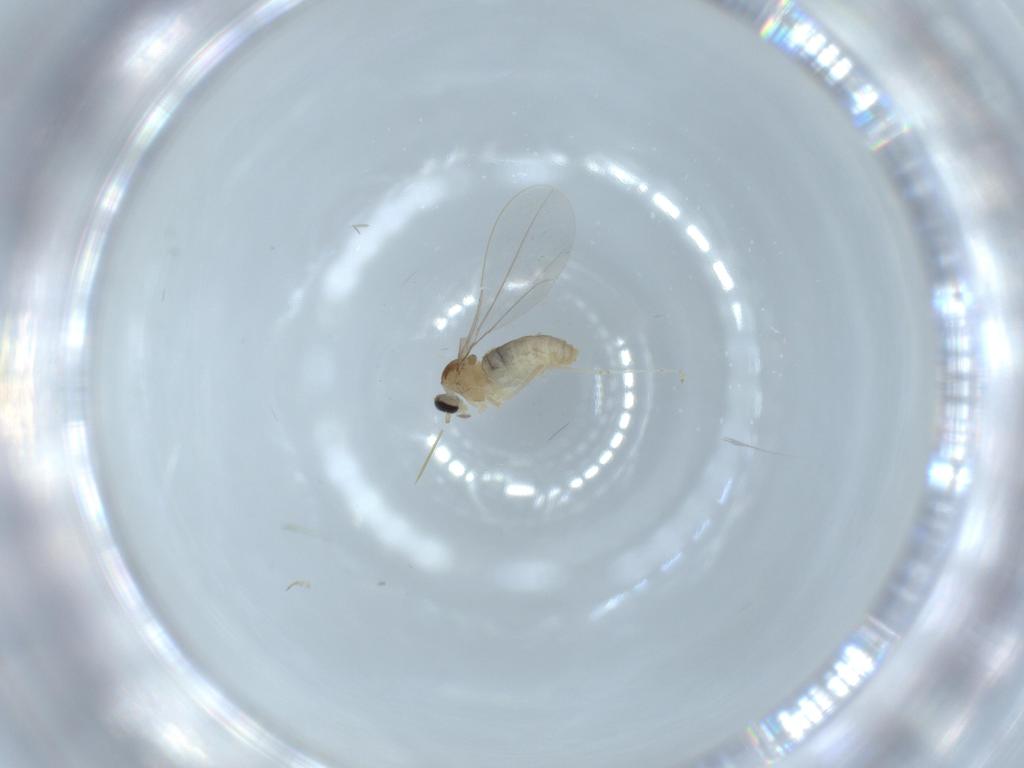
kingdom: Animalia
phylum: Arthropoda
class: Insecta
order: Diptera
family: Cecidomyiidae
